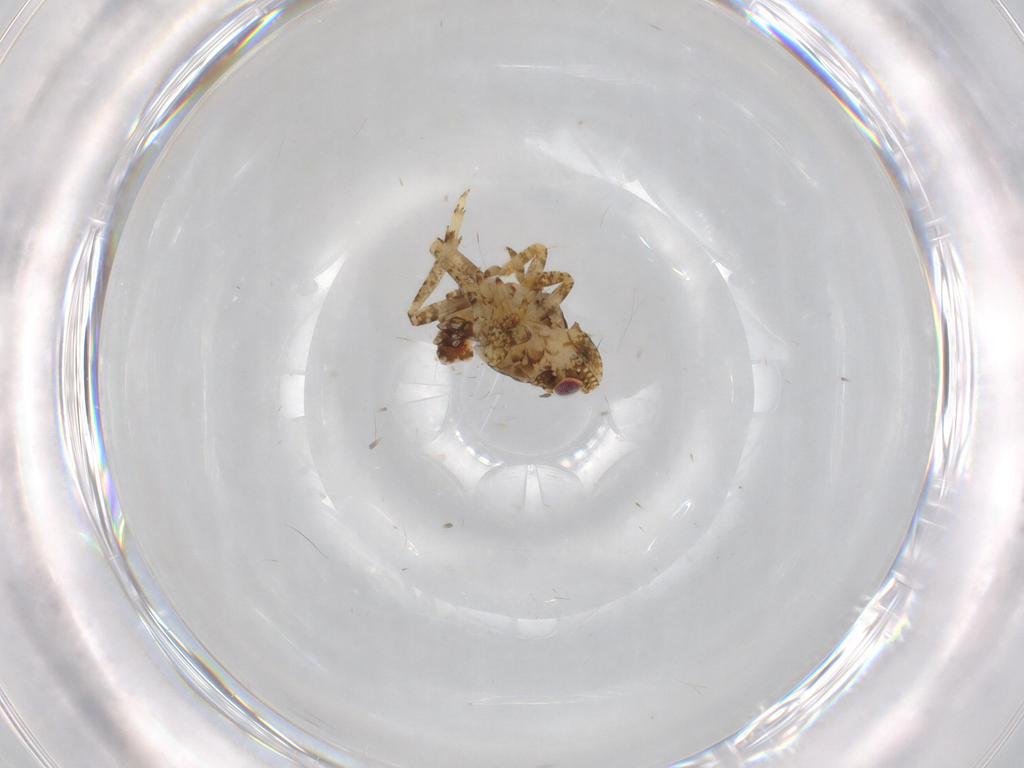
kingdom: Animalia
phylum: Arthropoda
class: Insecta
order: Hemiptera
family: Issidae
